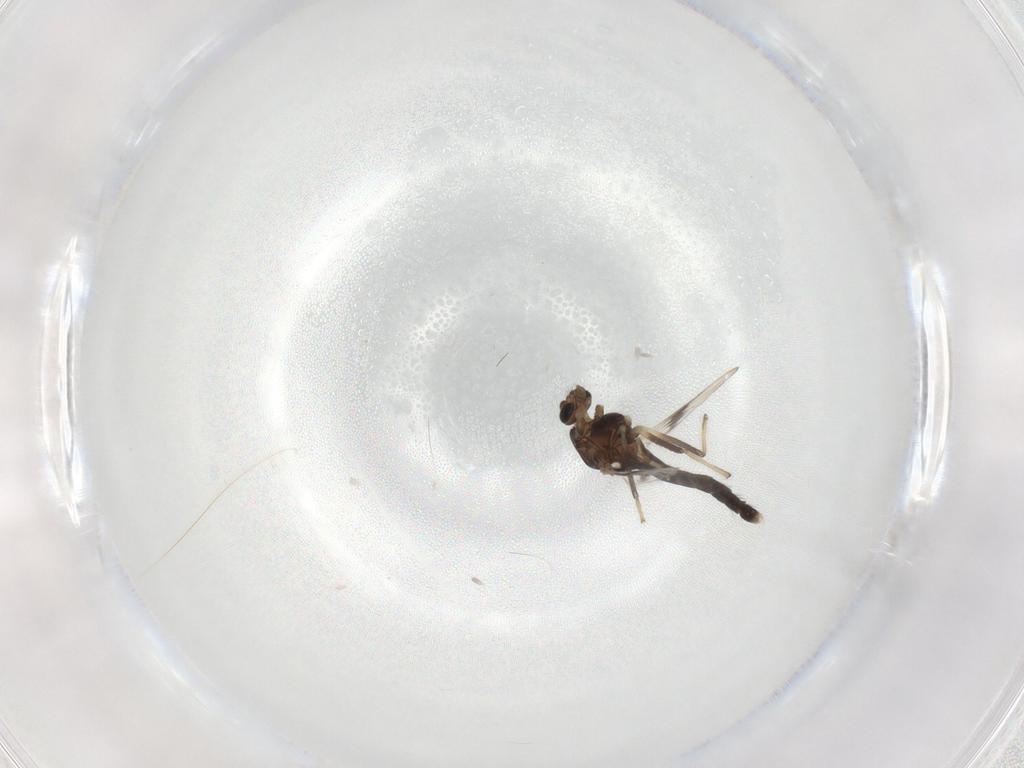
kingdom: Animalia
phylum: Arthropoda
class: Insecta
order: Diptera
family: Chironomidae
